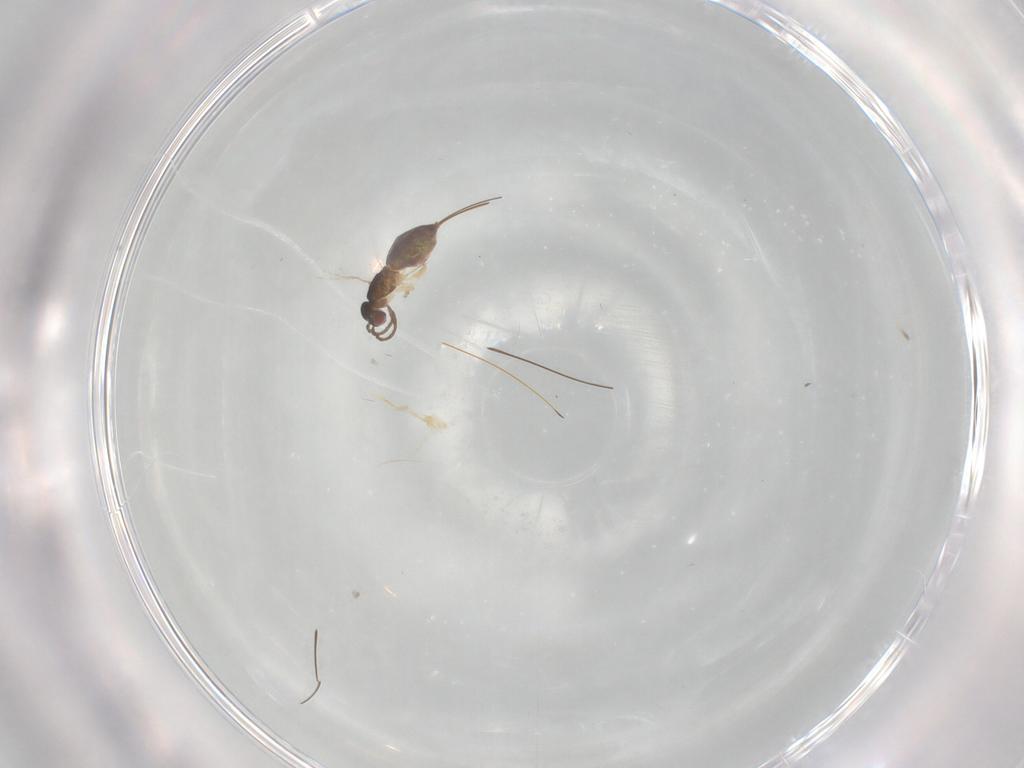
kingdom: Animalia
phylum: Arthropoda
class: Insecta
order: Hymenoptera
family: Pteromalidae
